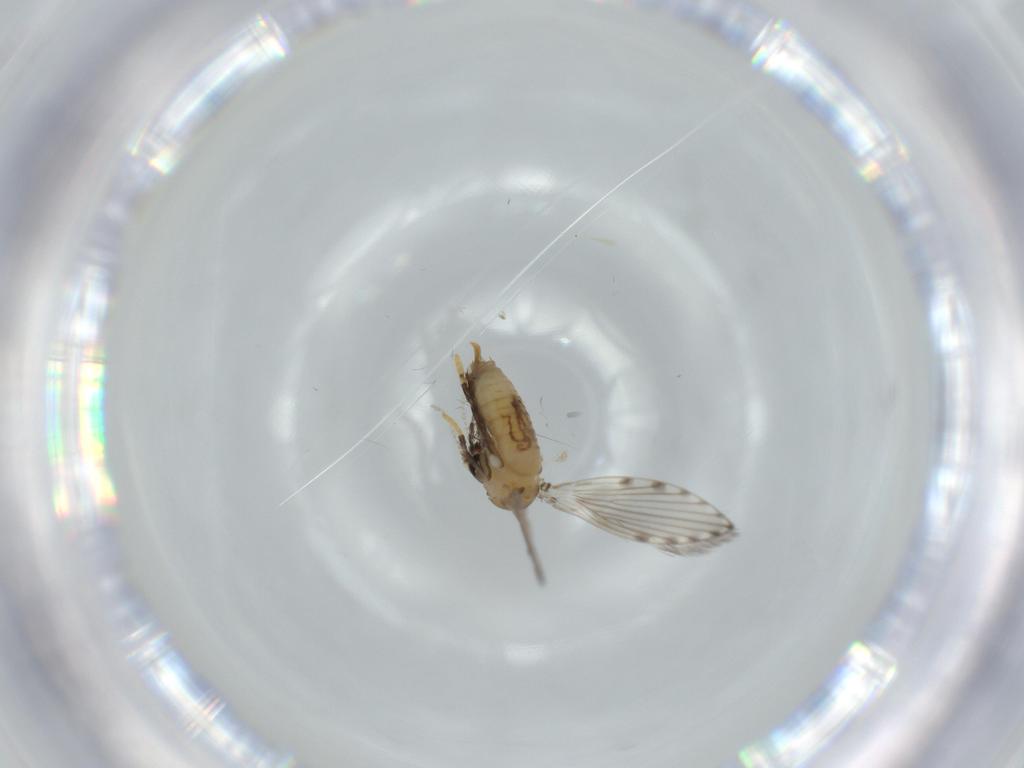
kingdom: Animalia
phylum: Arthropoda
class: Insecta
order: Diptera
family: Psychodidae
